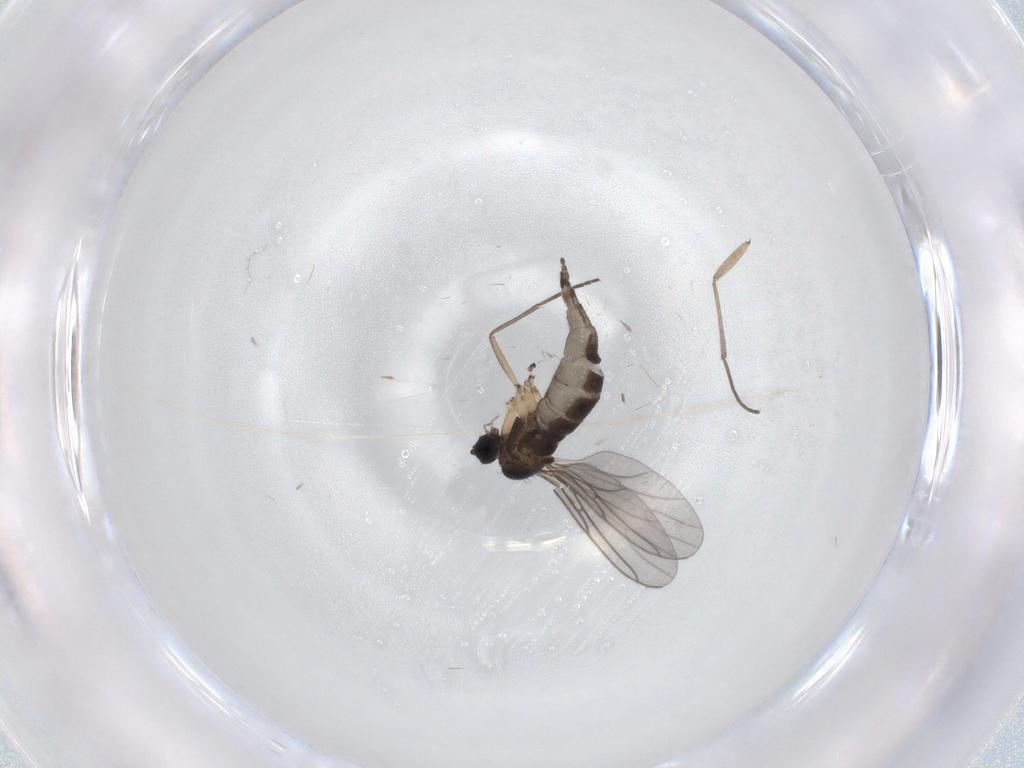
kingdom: Animalia
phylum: Arthropoda
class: Insecta
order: Diptera
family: Sciaridae
